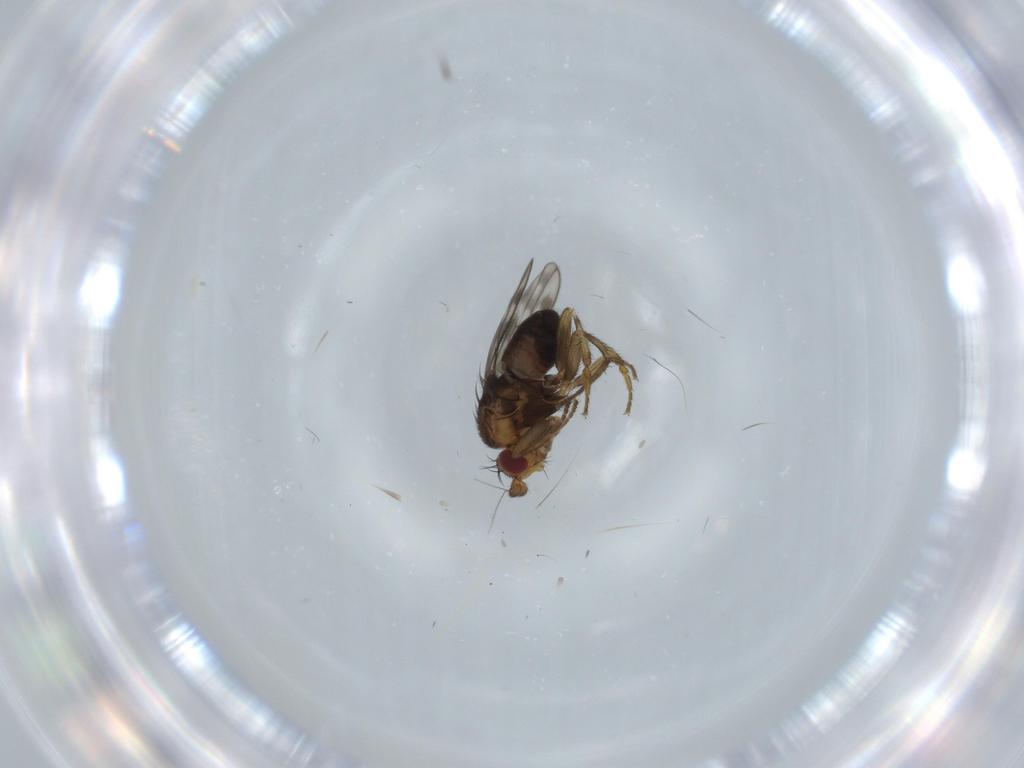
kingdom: Animalia
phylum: Arthropoda
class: Insecta
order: Diptera
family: Sphaeroceridae
